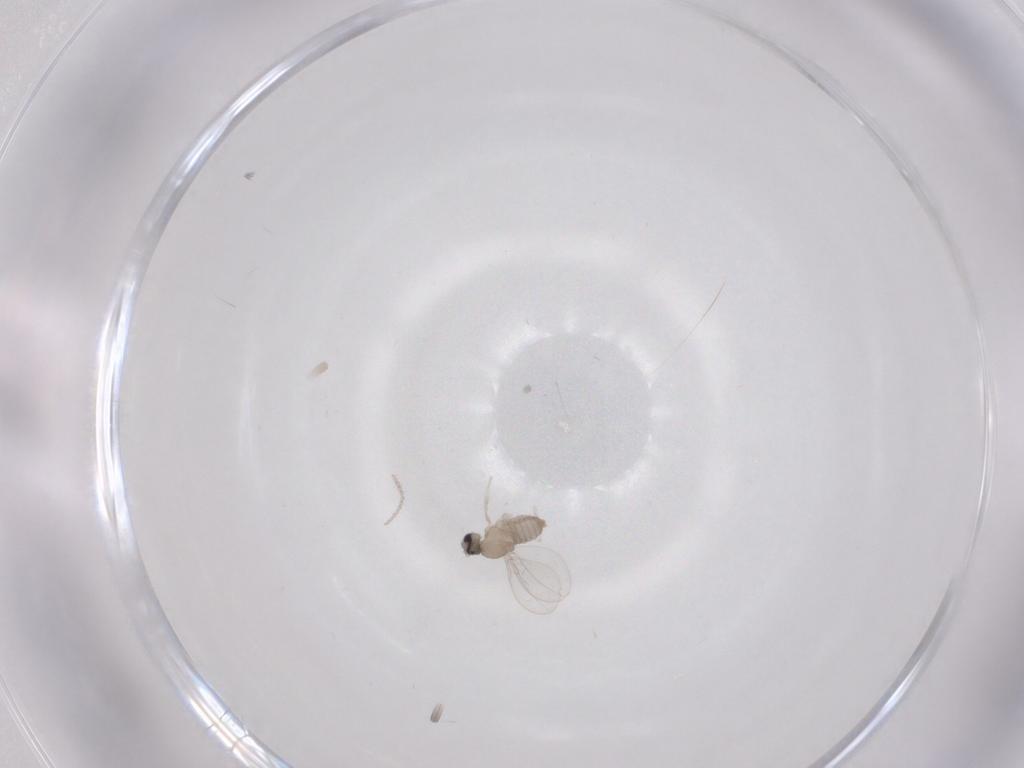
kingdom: Animalia
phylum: Arthropoda
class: Insecta
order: Diptera
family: Cecidomyiidae
